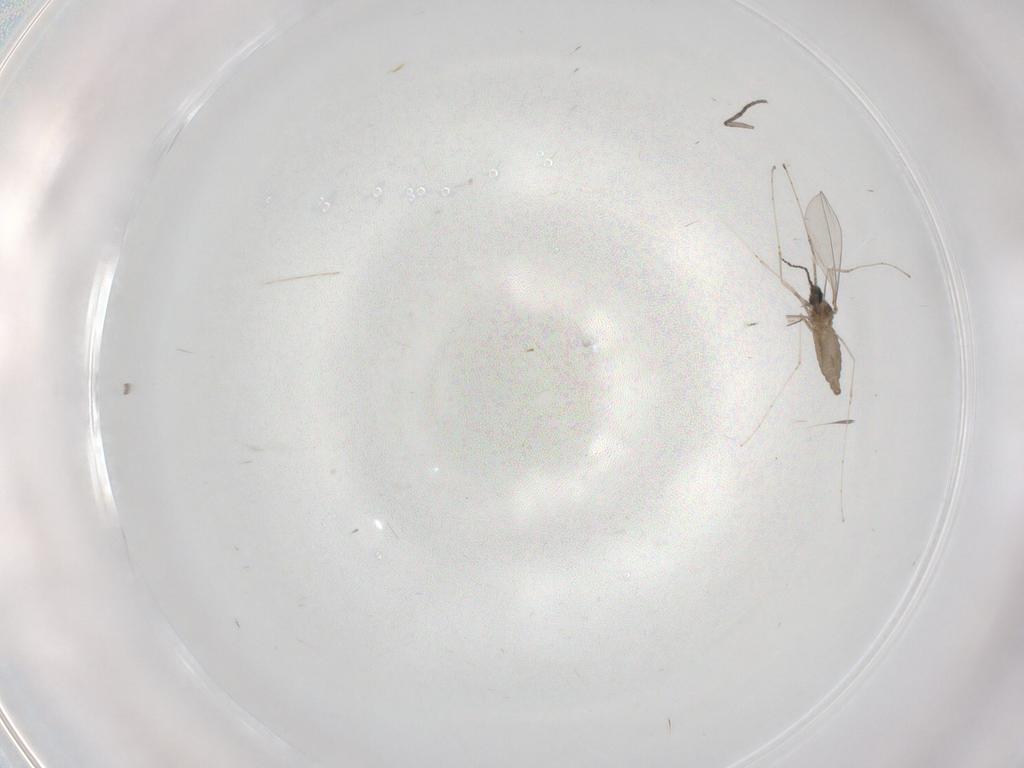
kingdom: Animalia
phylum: Arthropoda
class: Insecta
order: Diptera
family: Cecidomyiidae
